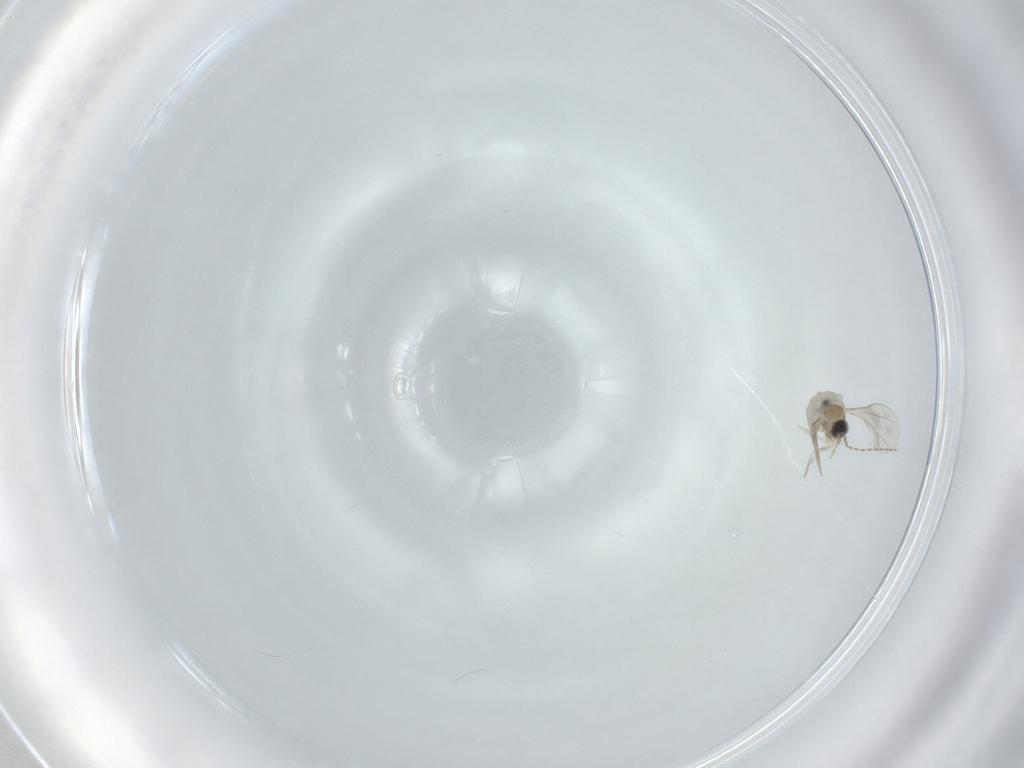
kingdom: Animalia
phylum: Arthropoda
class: Insecta
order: Diptera
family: Cecidomyiidae
